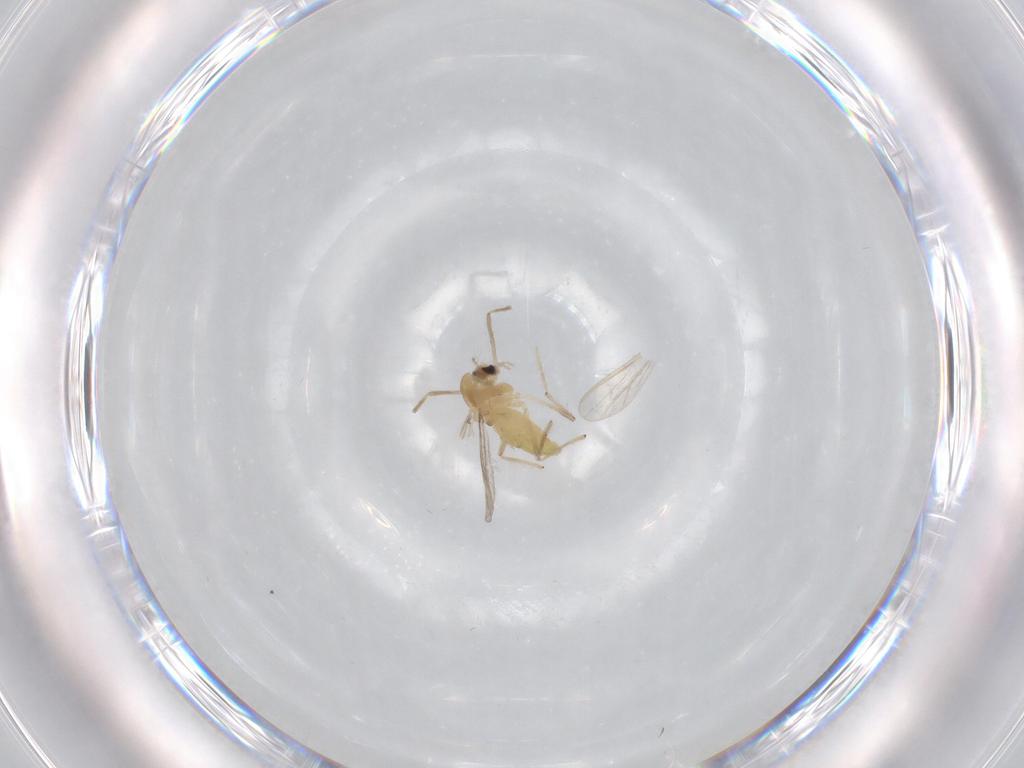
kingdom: Animalia
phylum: Arthropoda
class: Insecta
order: Diptera
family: Chironomidae
